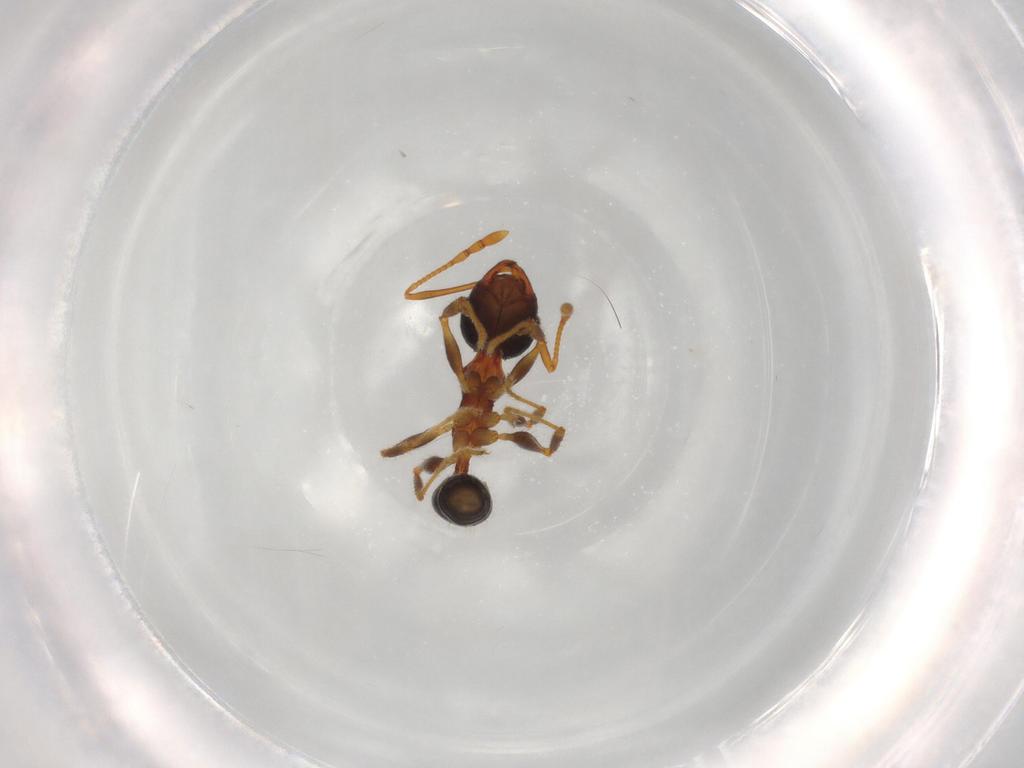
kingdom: Animalia
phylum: Arthropoda
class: Insecta
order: Hymenoptera
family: Formicidae
